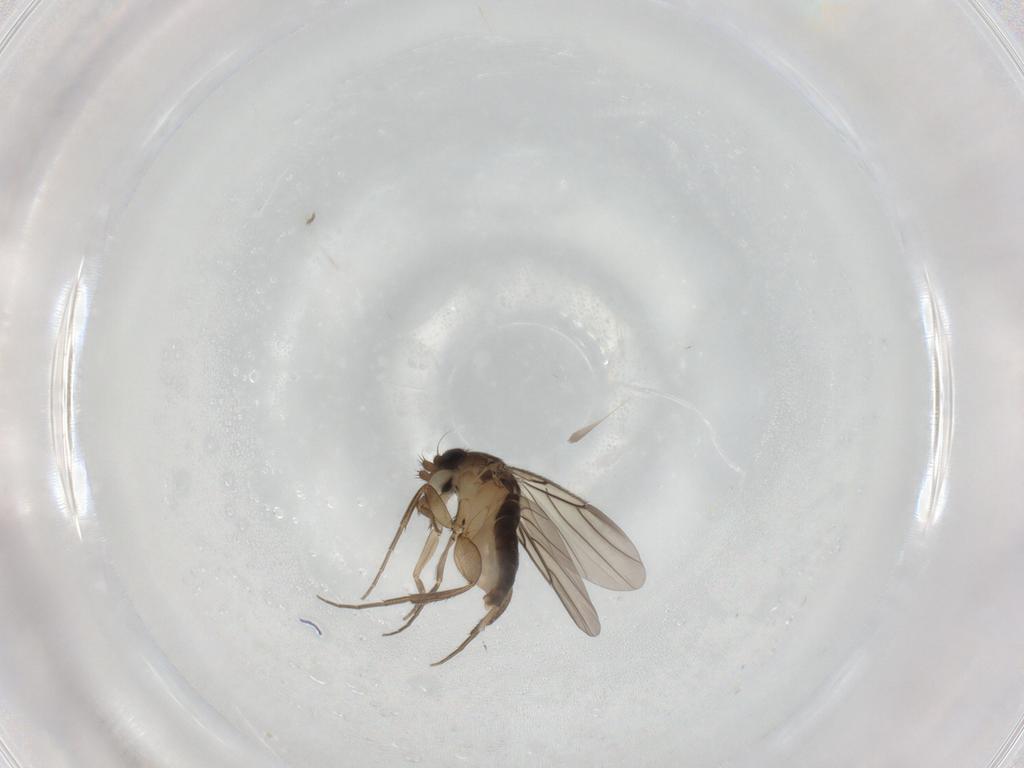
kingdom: Animalia
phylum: Arthropoda
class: Insecta
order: Diptera
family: Phoridae
